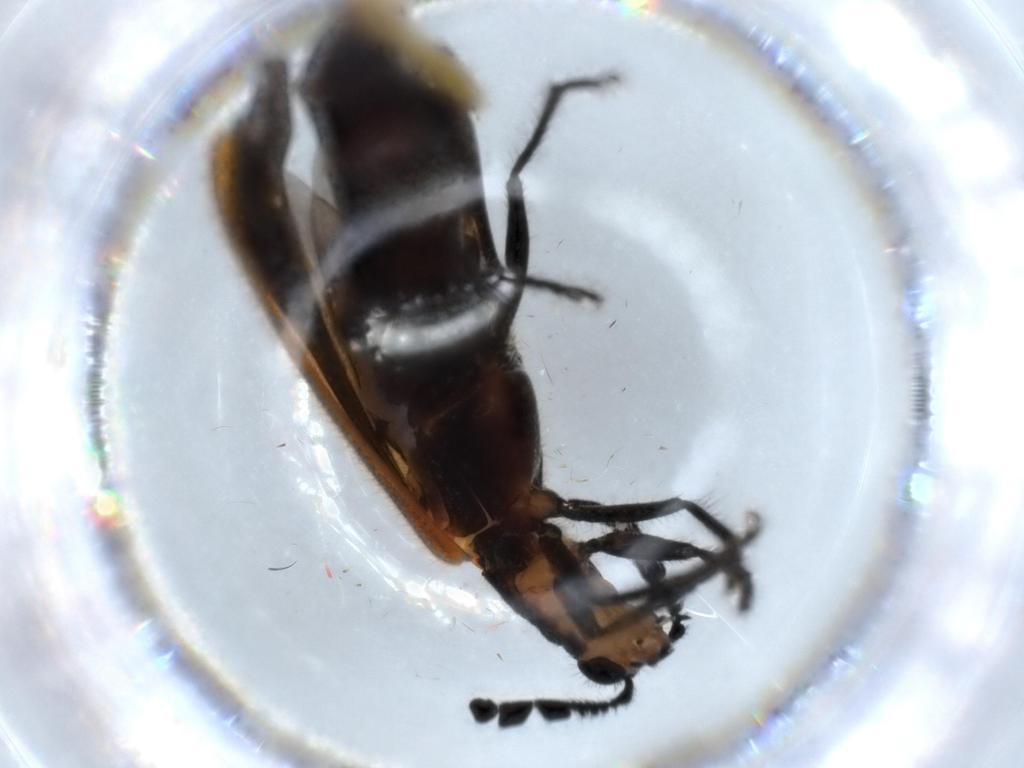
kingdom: Animalia
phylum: Arthropoda
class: Insecta
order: Coleoptera
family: Cleridae
